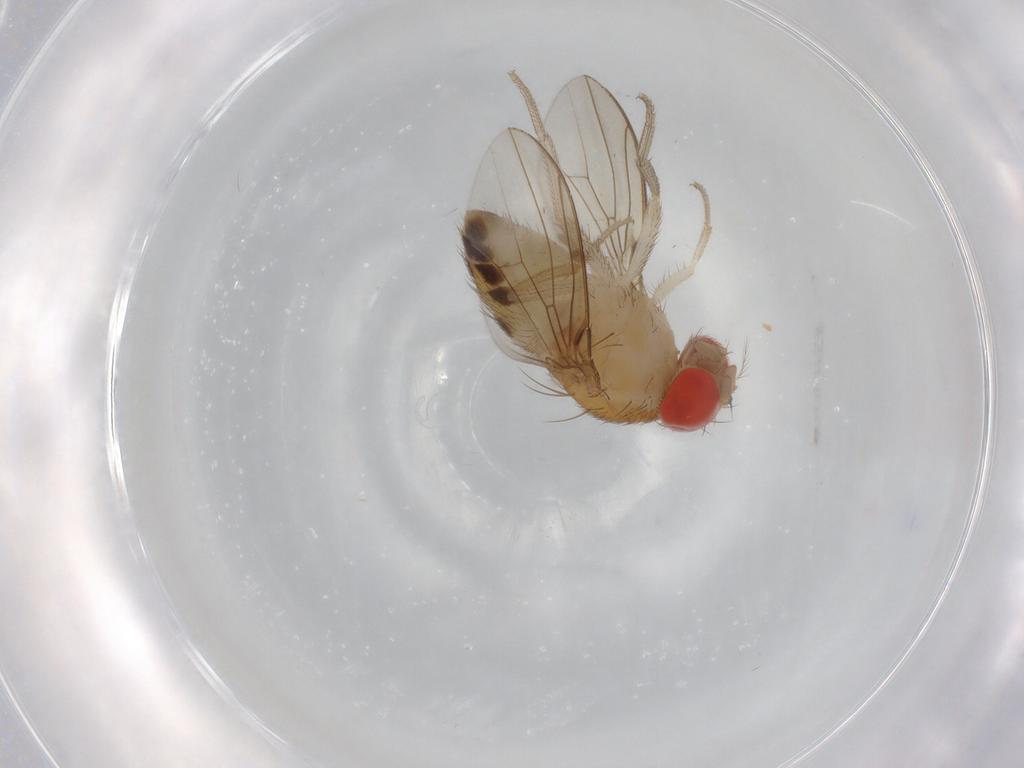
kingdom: Animalia
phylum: Arthropoda
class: Insecta
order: Diptera
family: Drosophilidae
